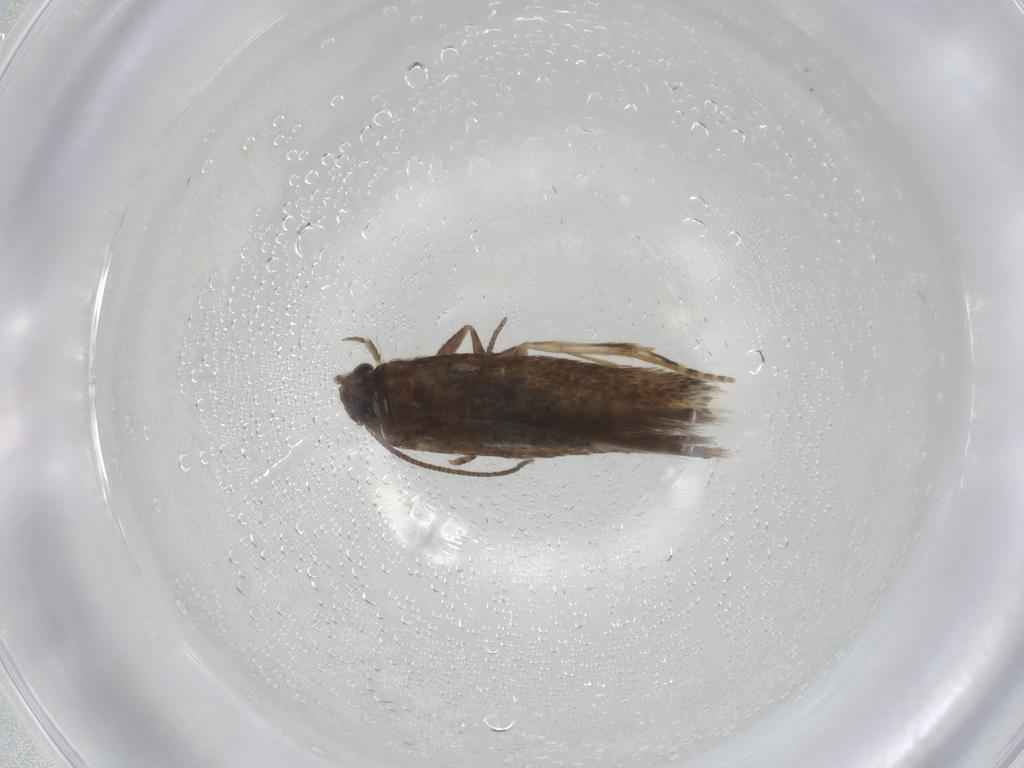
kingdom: Animalia
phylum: Arthropoda
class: Insecta
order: Lepidoptera
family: Elachistidae
